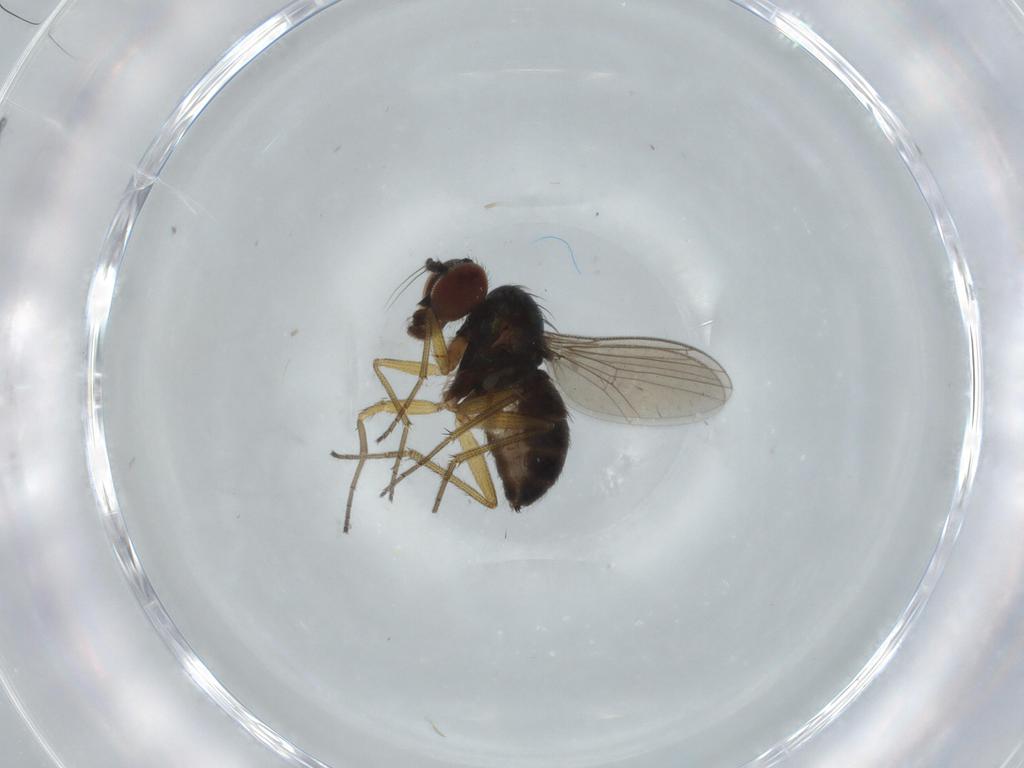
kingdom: Animalia
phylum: Arthropoda
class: Insecta
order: Diptera
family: Dolichopodidae
